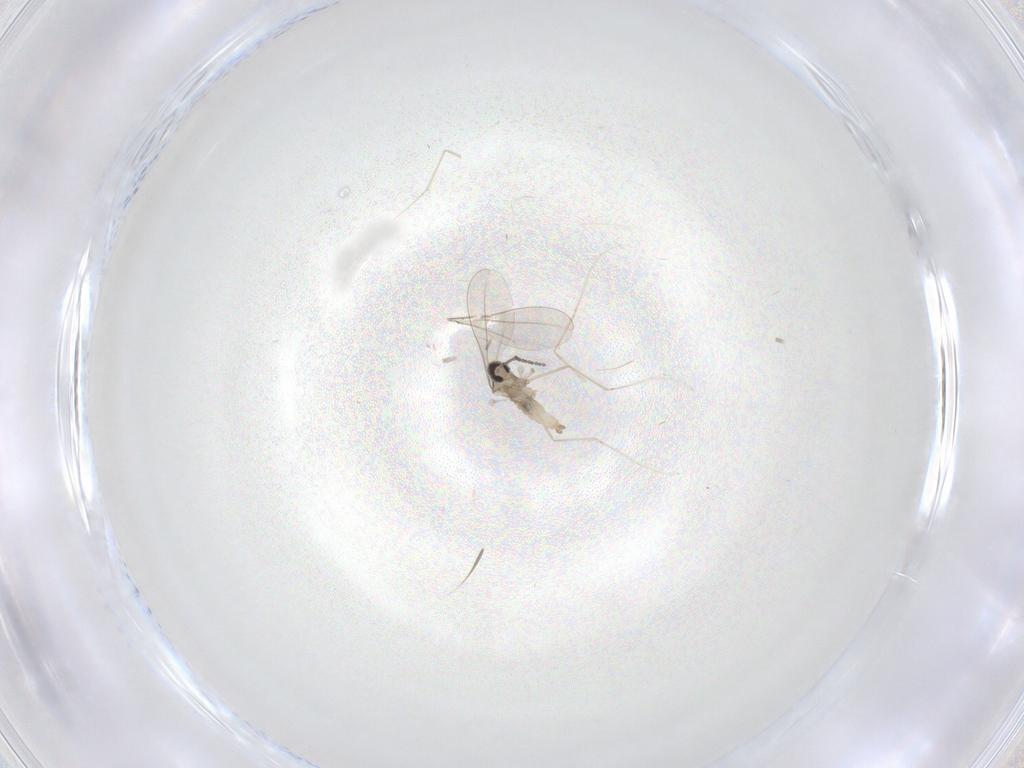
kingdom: Animalia
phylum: Arthropoda
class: Insecta
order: Diptera
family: Cecidomyiidae
